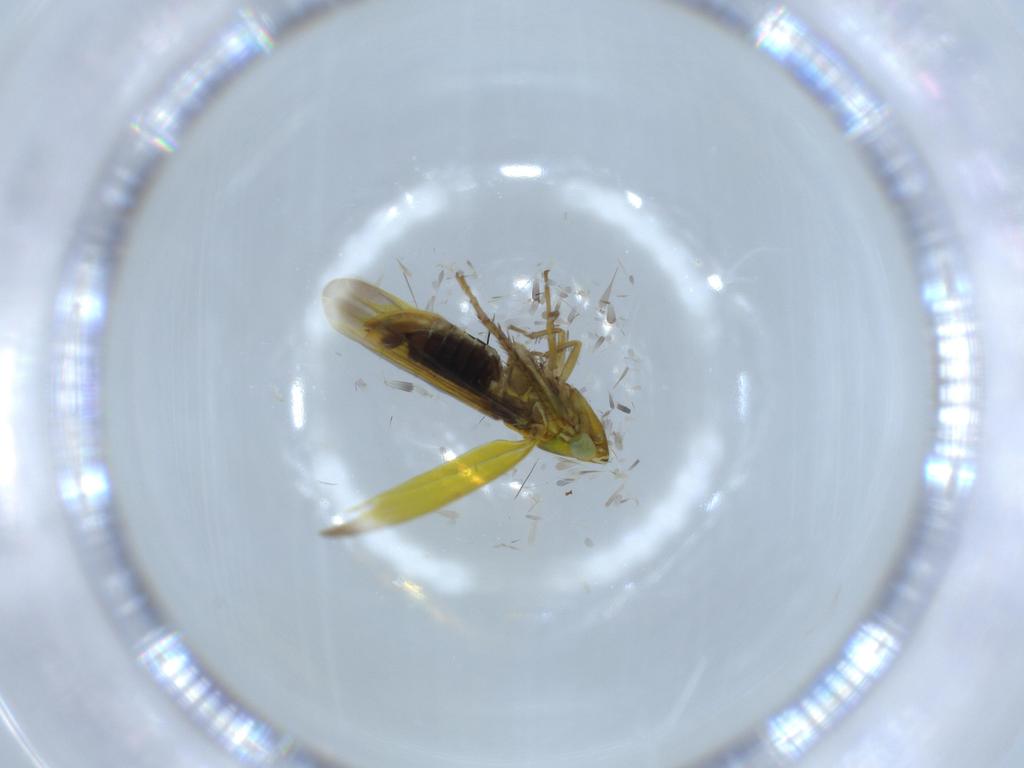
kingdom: Animalia
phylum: Arthropoda
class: Insecta
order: Hemiptera
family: Cicadellidae
